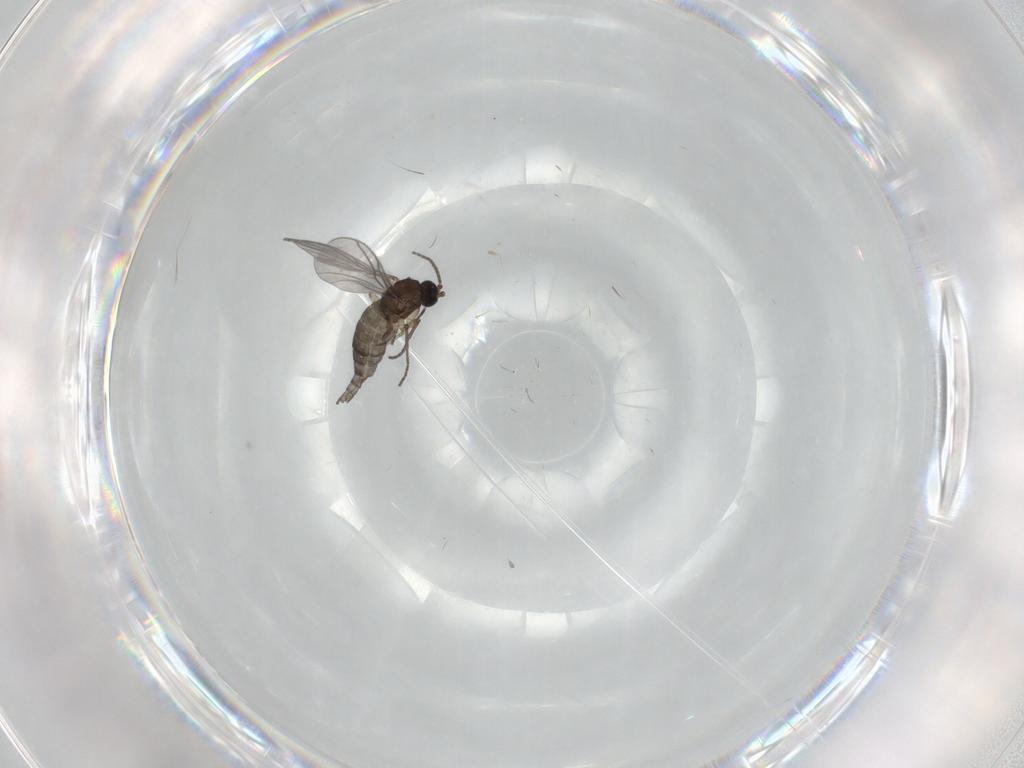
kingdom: Animalia
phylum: Arthropoda
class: Insecta
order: Diptera
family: Sciaridae
